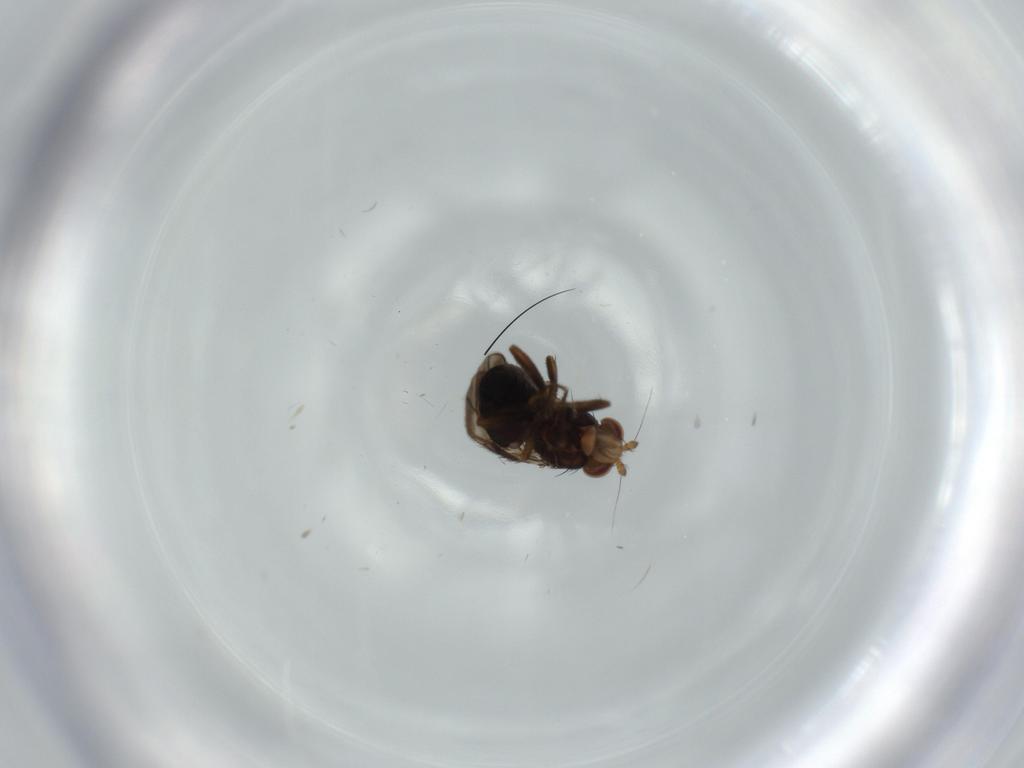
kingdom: Animalia
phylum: Arthropoda
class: Insecta
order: Diptera
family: Sphaeroceridae
